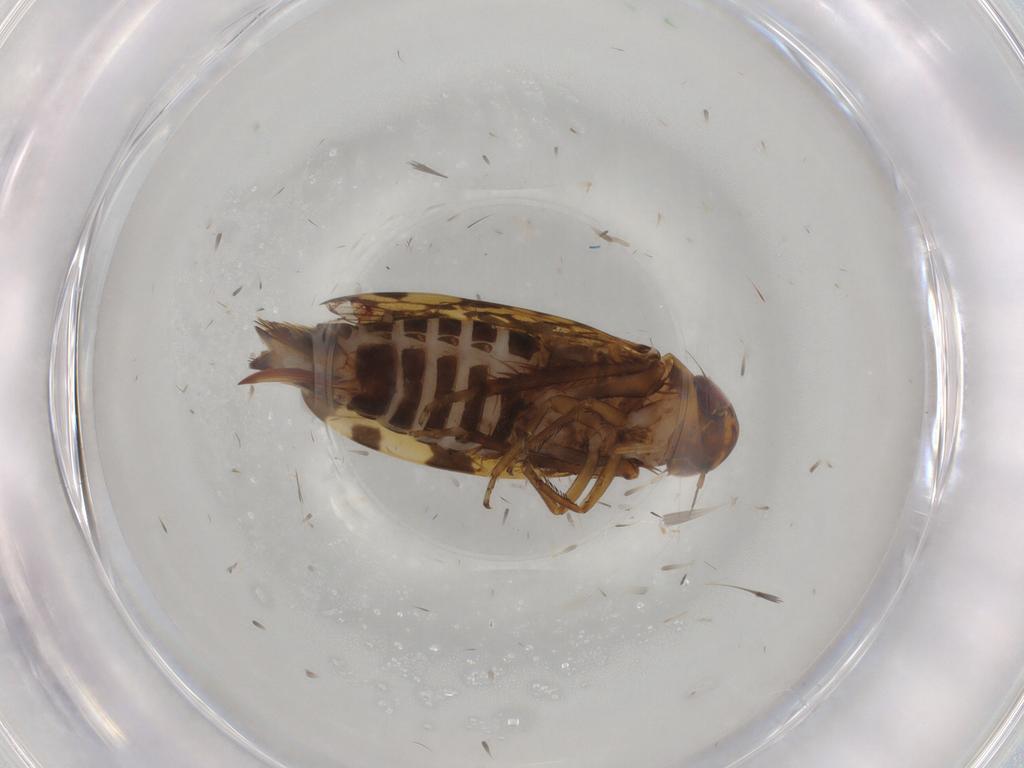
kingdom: Animalia
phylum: Arthropoda
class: Insecta
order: Hemiptera
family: Cicadellidae
